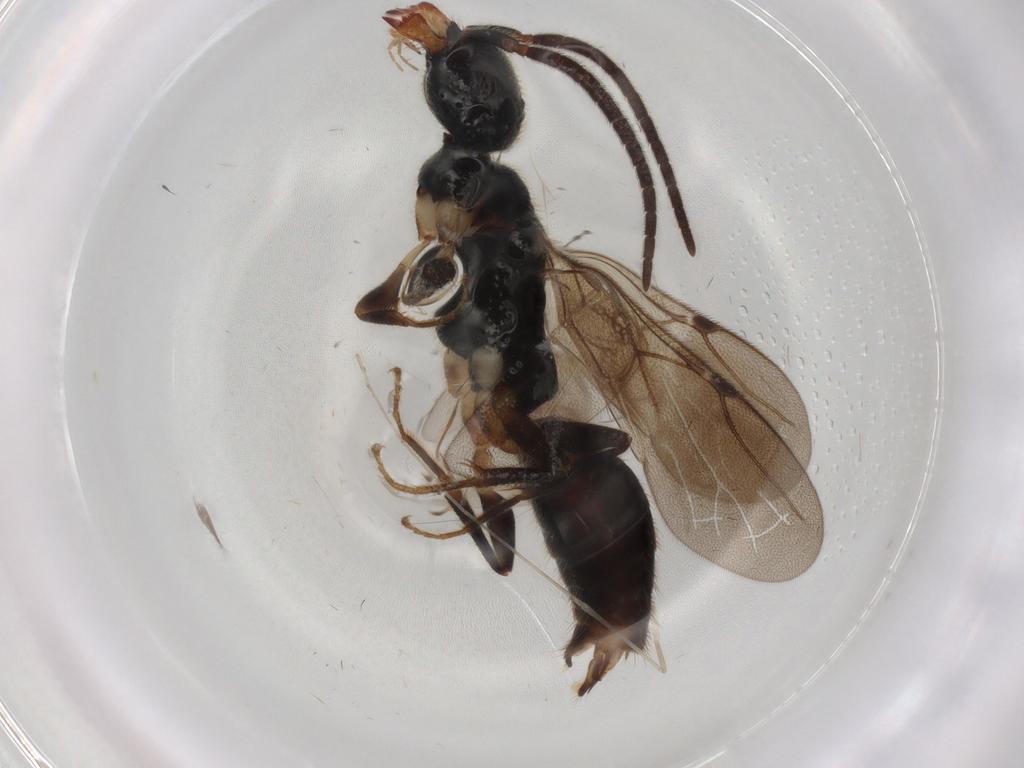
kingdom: Animalia
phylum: Arthropoda
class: Insecta
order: Hymenoptera
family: Bethylidae
